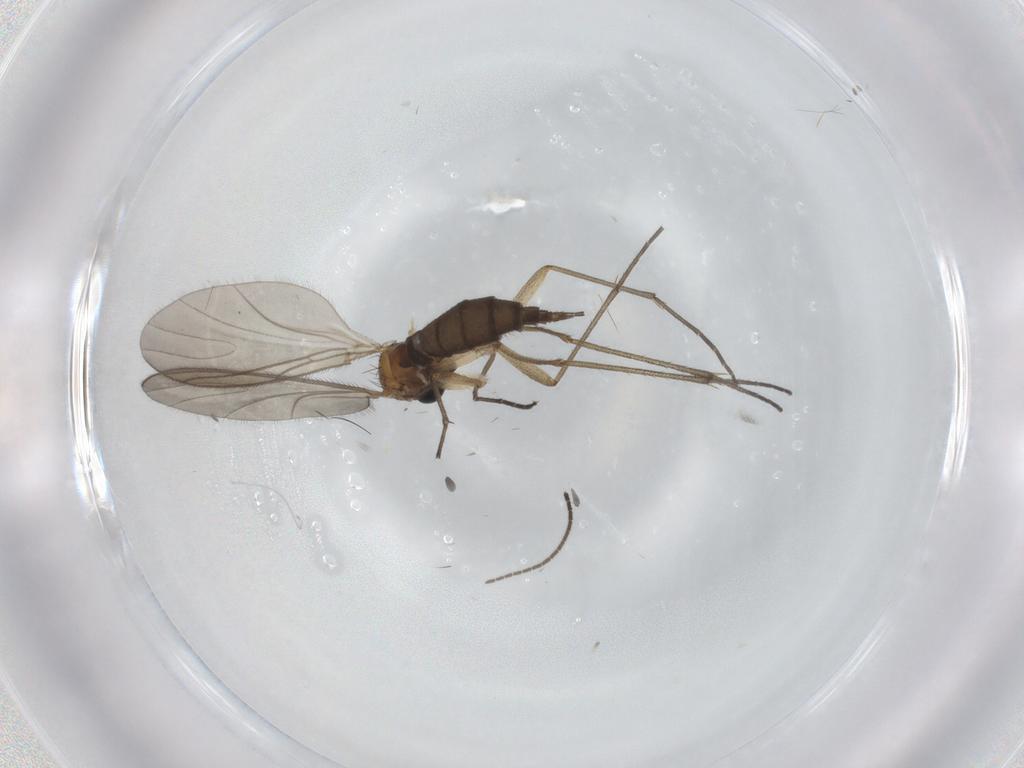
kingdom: Animalia
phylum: Arthropoda
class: Insecta
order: Diptera
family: Sciaridae
